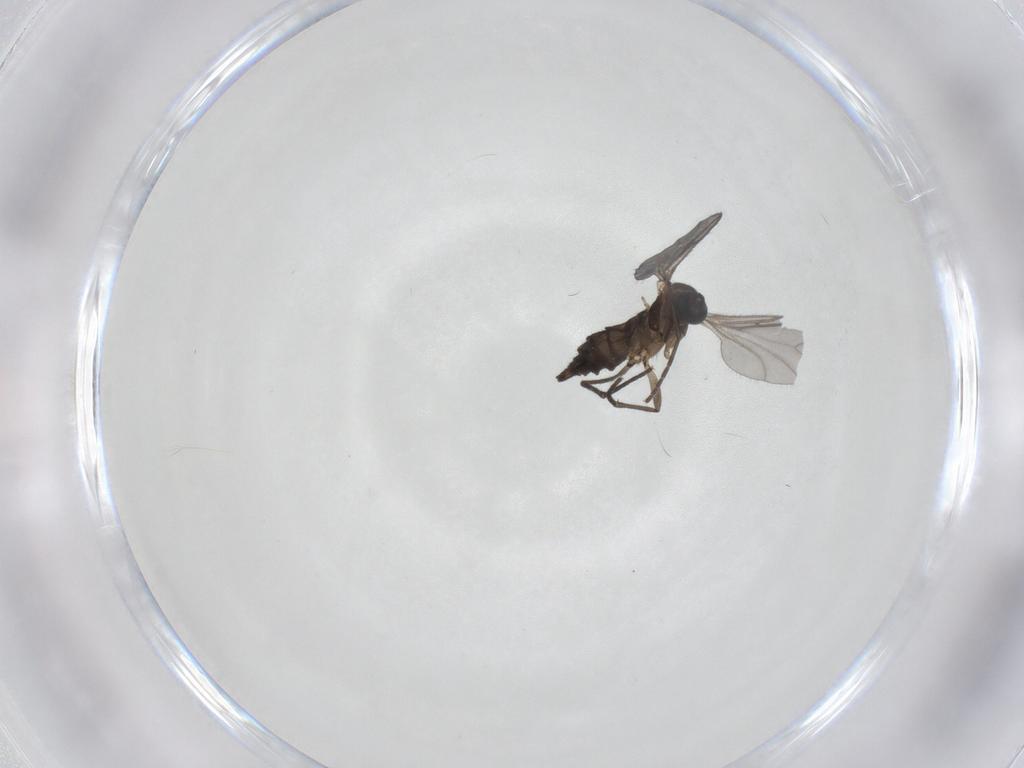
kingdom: Animalia
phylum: Arthropoda
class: Insecta
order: Diptera
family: Sciaridae
